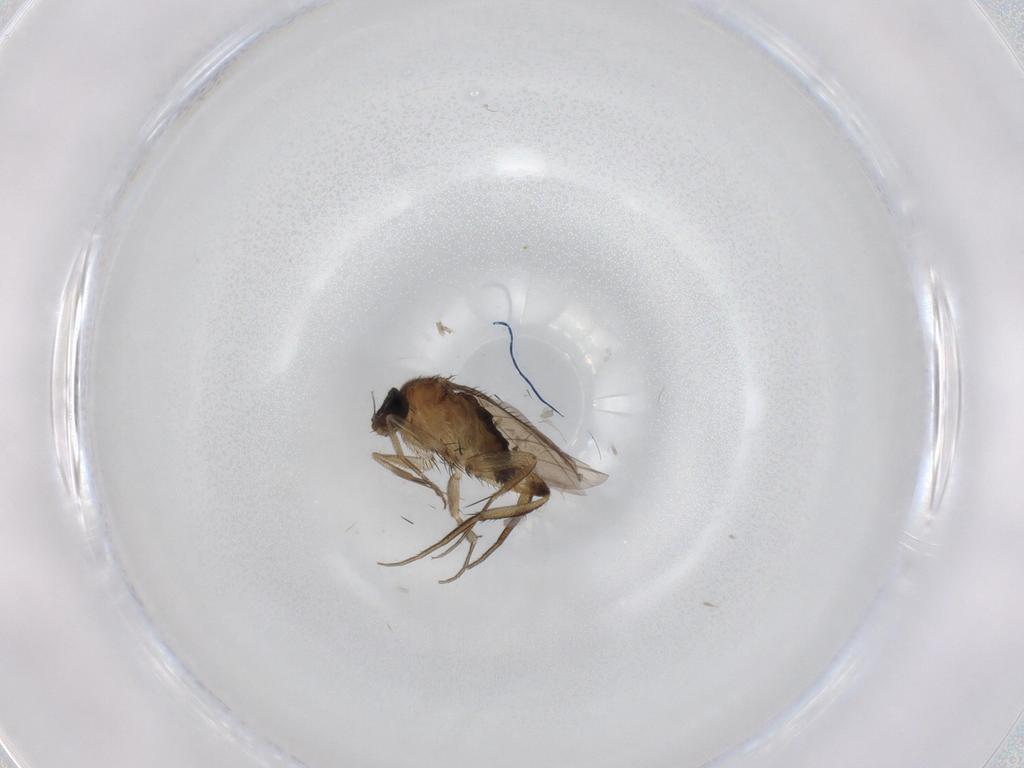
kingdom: Animalia
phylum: Arthropoda
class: Insecta
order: Diptera
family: Phoridae
